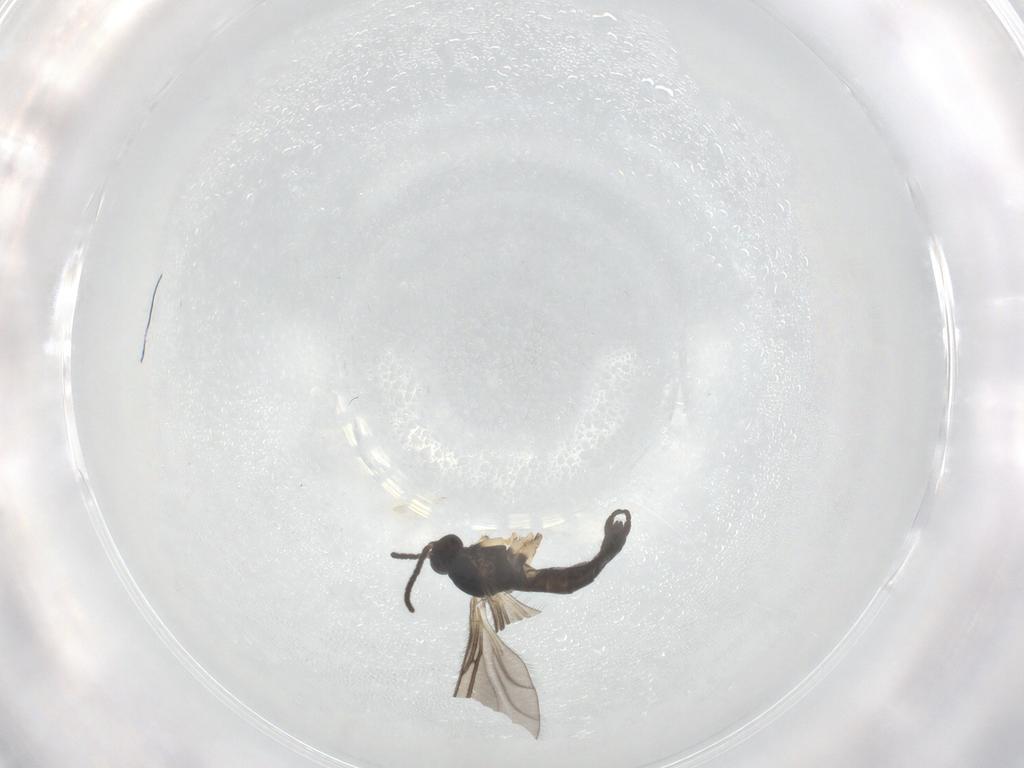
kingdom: Animalia
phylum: Arthropoda
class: Insecta
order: Diptera
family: Sciaridae
